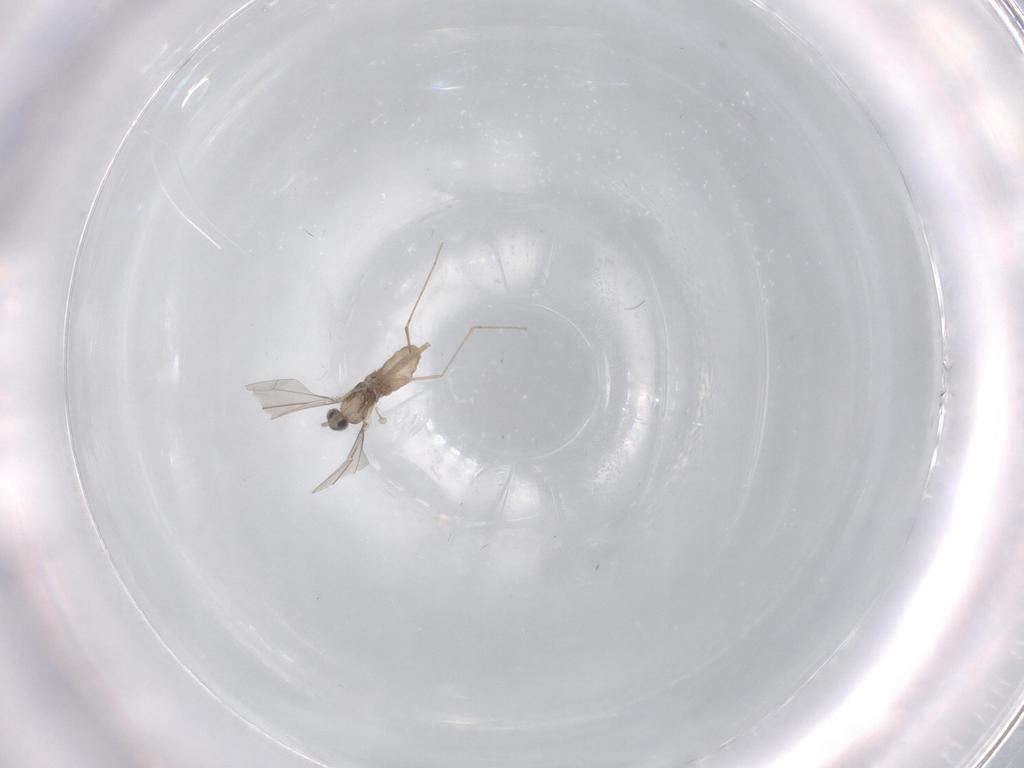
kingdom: Animalia
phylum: Arthropoda
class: Insecta
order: Diptera
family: Cecidomyiidae
